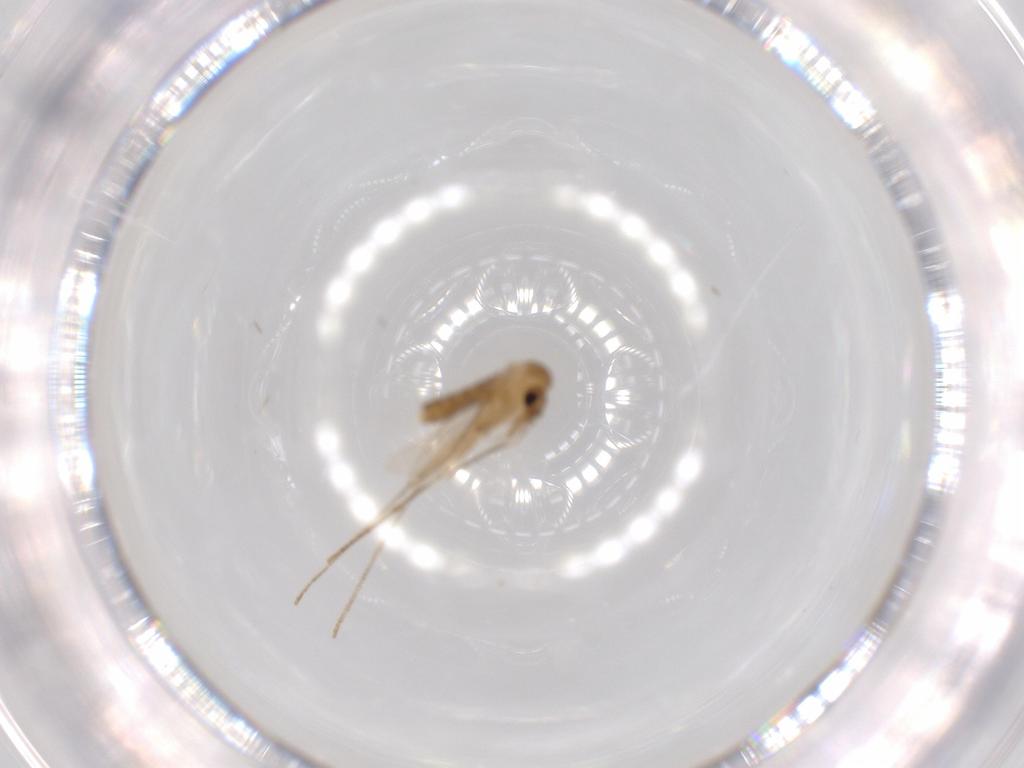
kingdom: Animalia
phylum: Arthropoda
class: Insecta
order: Diptera
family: Psychodidae
